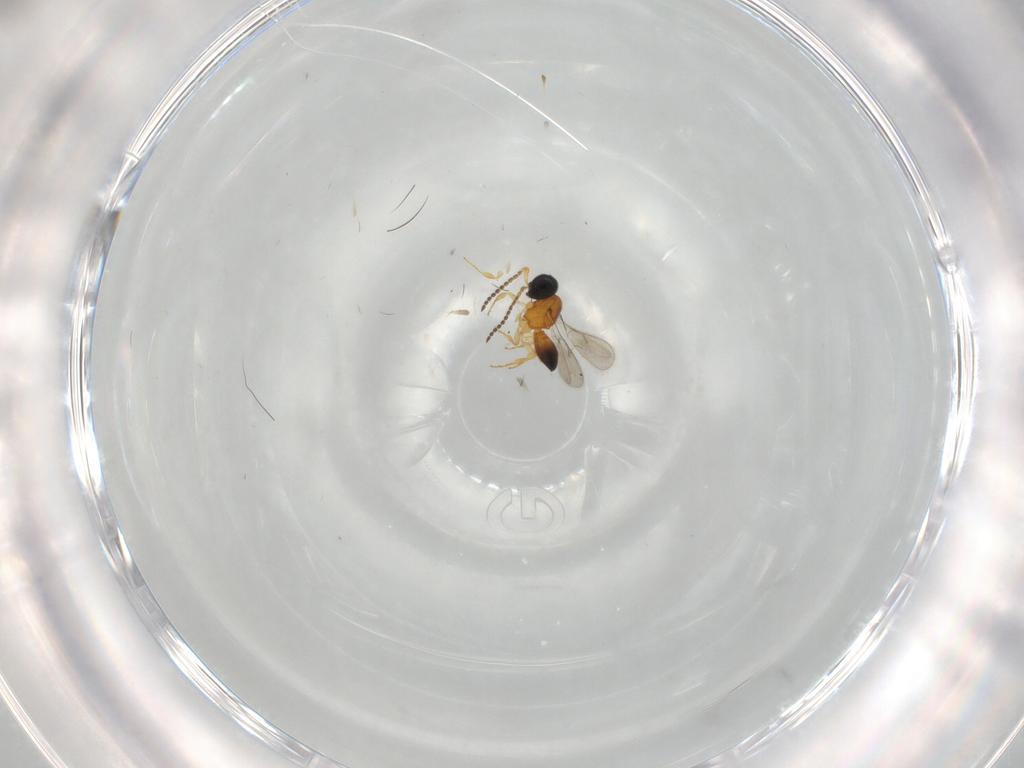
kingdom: Animalia
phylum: Arthropoda
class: Insecta
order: Hymenoptera
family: Scelionidae
